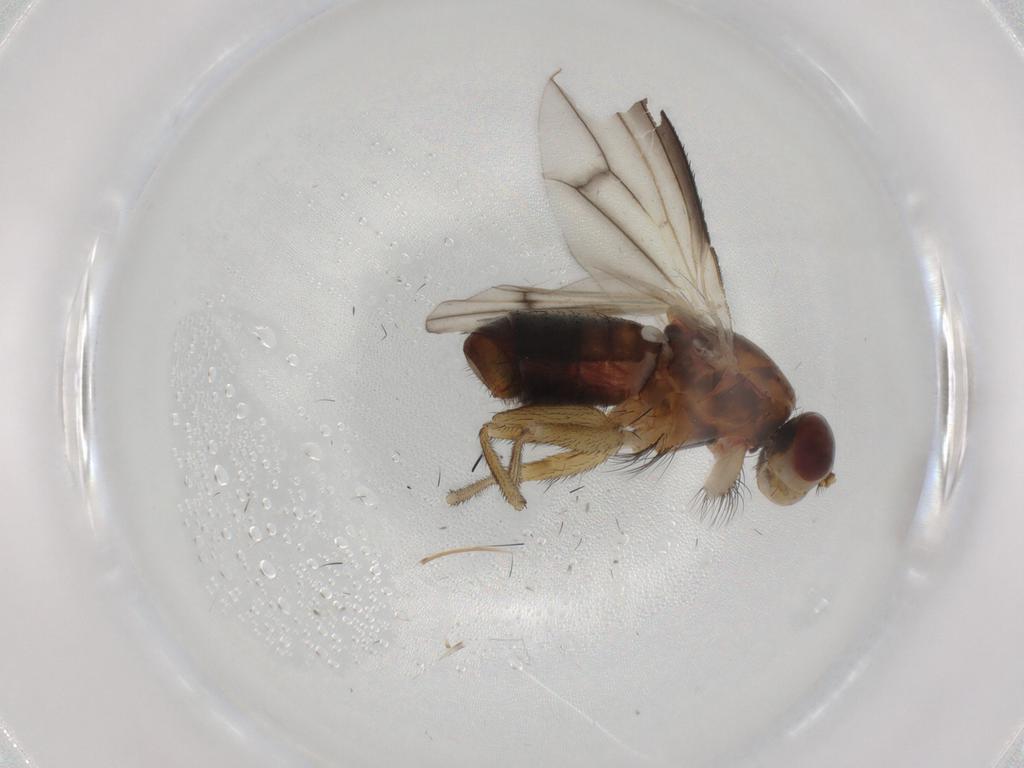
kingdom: Animalia
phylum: Arthropoda
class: Insecta
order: Diptera
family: Heleomyzidae
